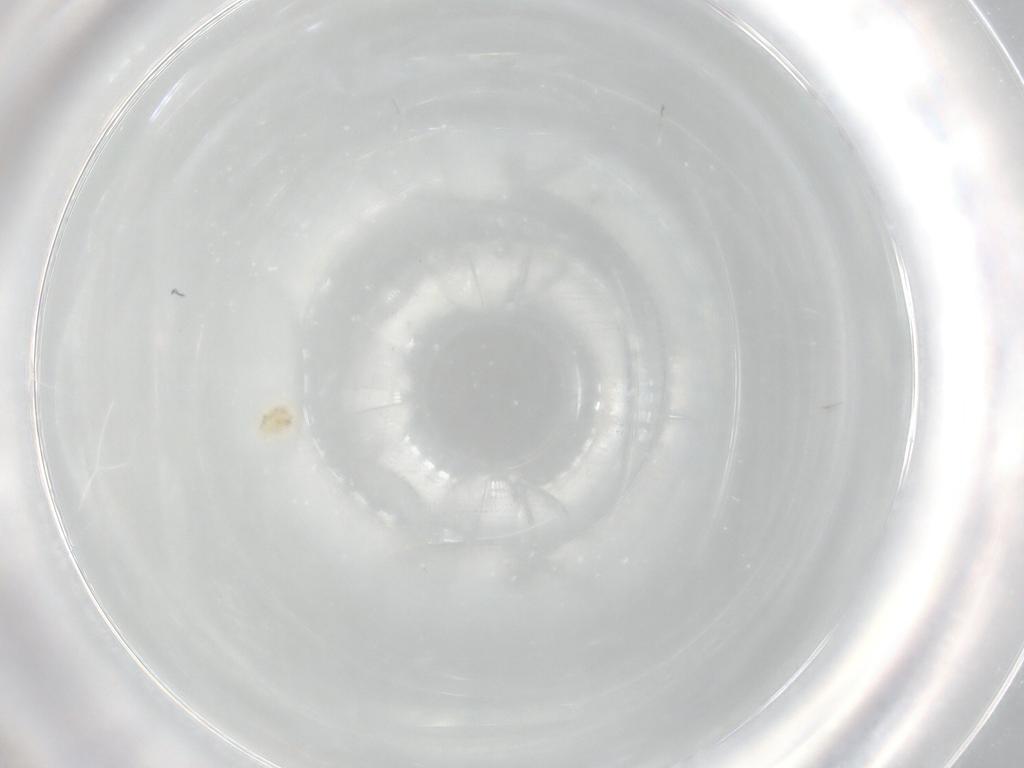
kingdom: Animalia
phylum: Arthropoda
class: Arachnida
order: Trombidiformes
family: Eupodidae
